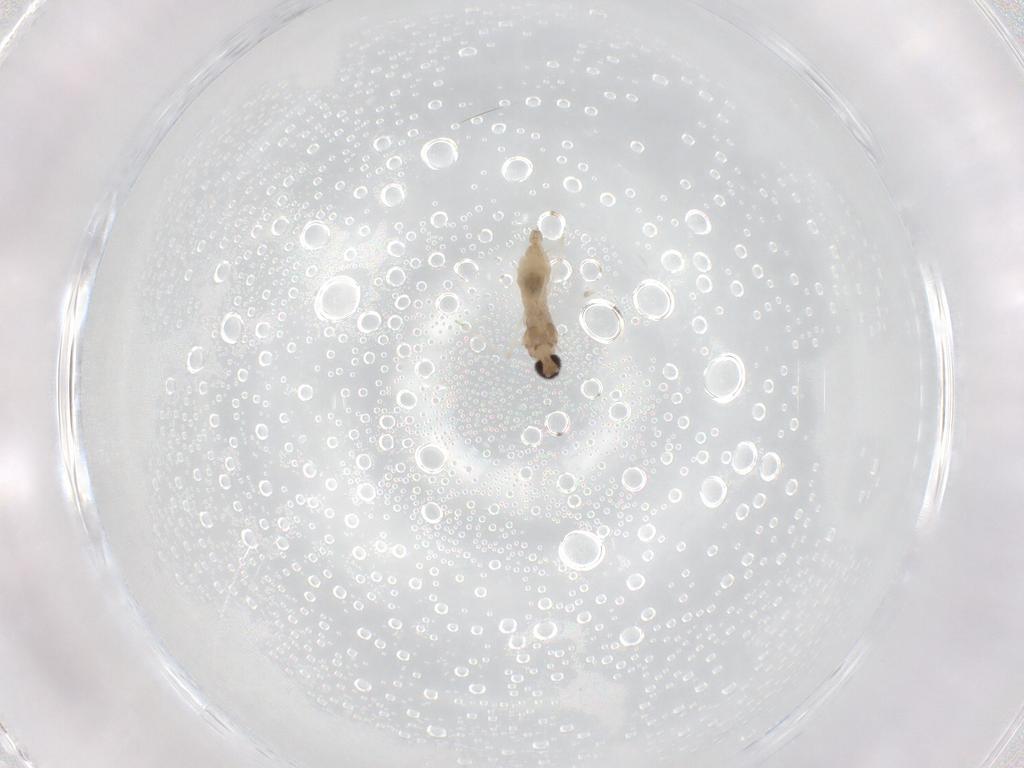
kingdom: Animalia
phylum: Arthropoda
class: Insecta
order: Diptera
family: Cecidomyiidae
